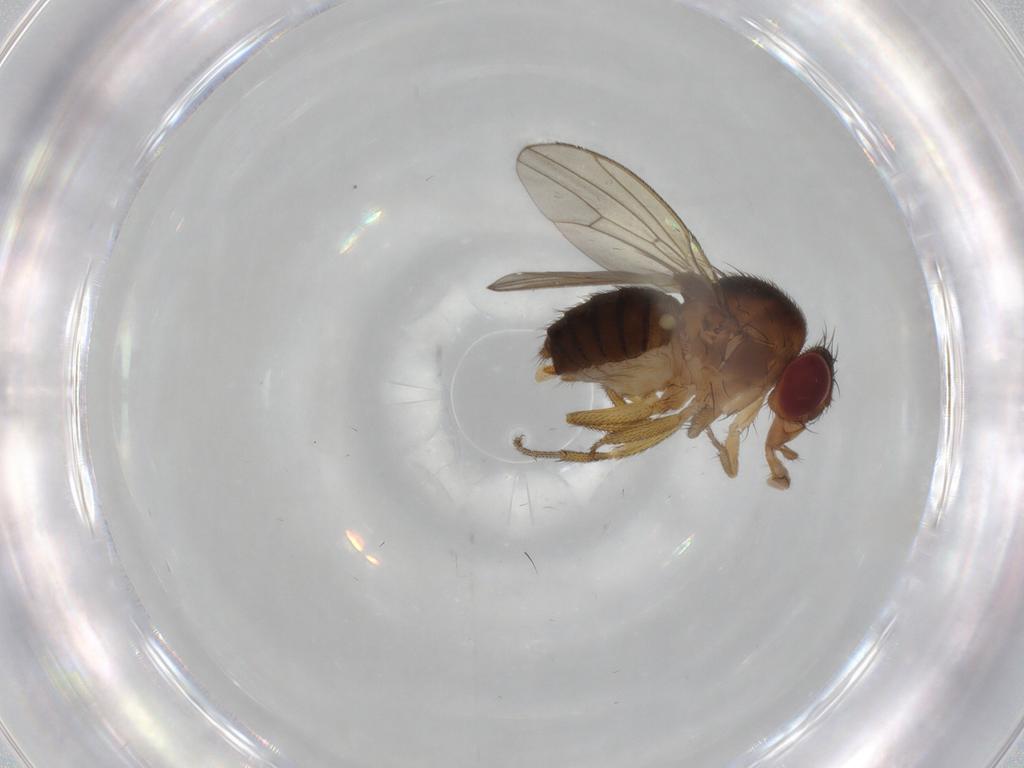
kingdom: Animalia
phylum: Arthropoda
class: Insecta
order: Diptera
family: Drosophilidae
